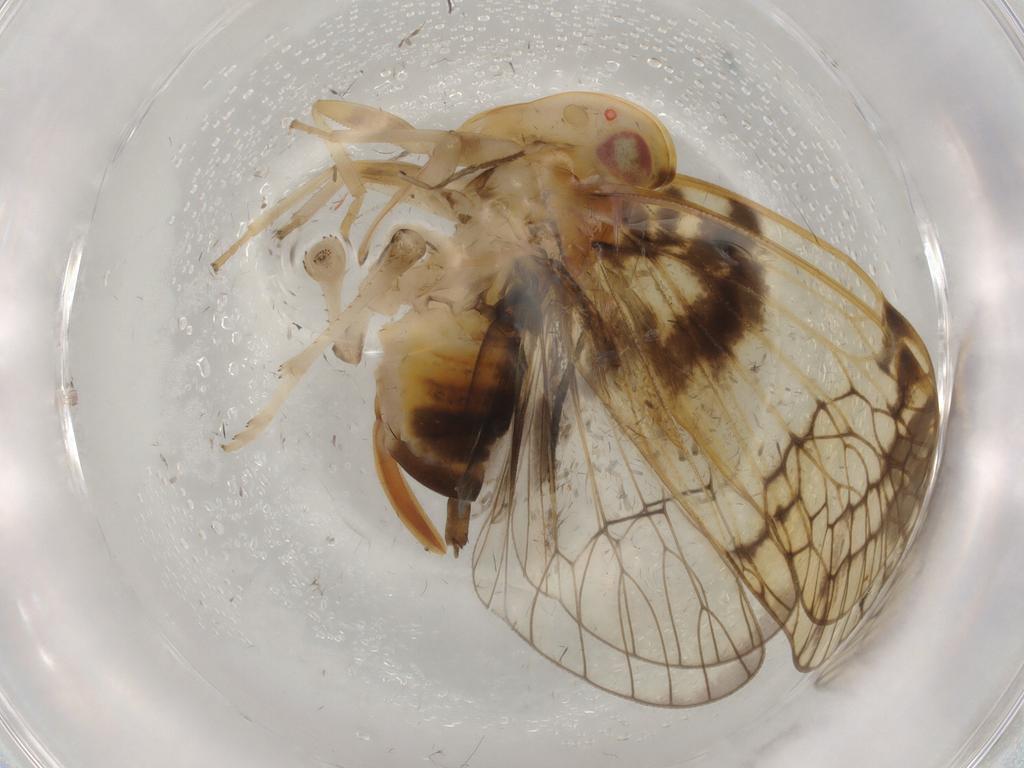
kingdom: Animalia
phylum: Arthropoda
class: Insecta
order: Hemiptera
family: Cixiidae
